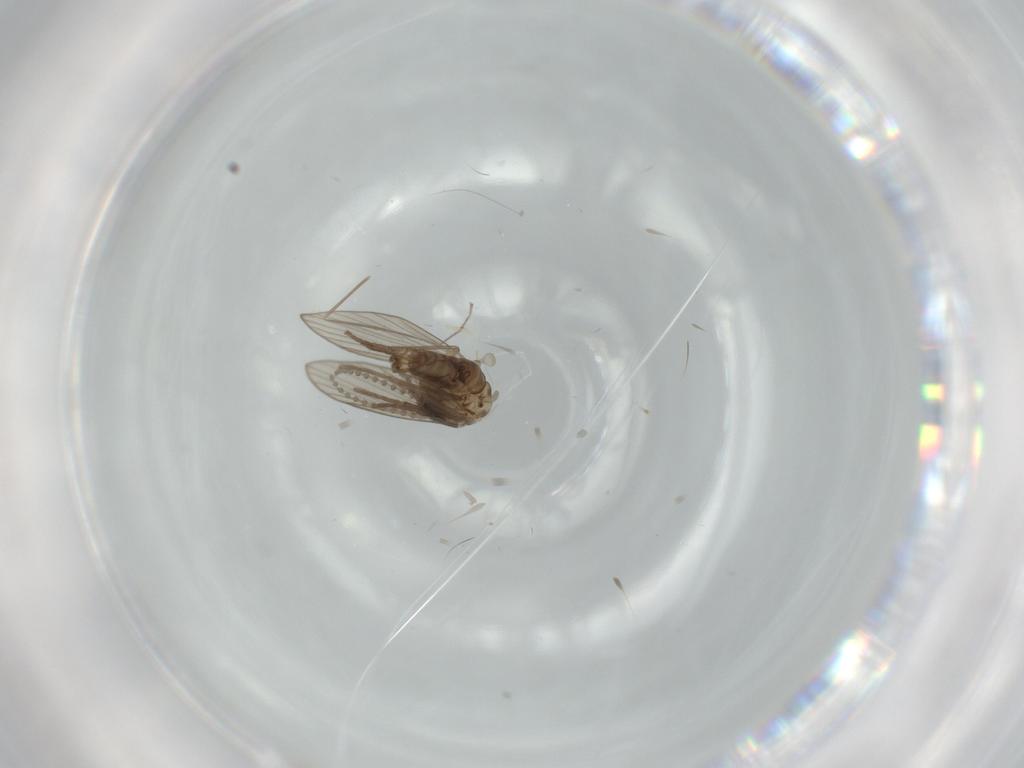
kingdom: Animalia
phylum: Arthropoda
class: Insecta
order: Diptera
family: Psychodidae
